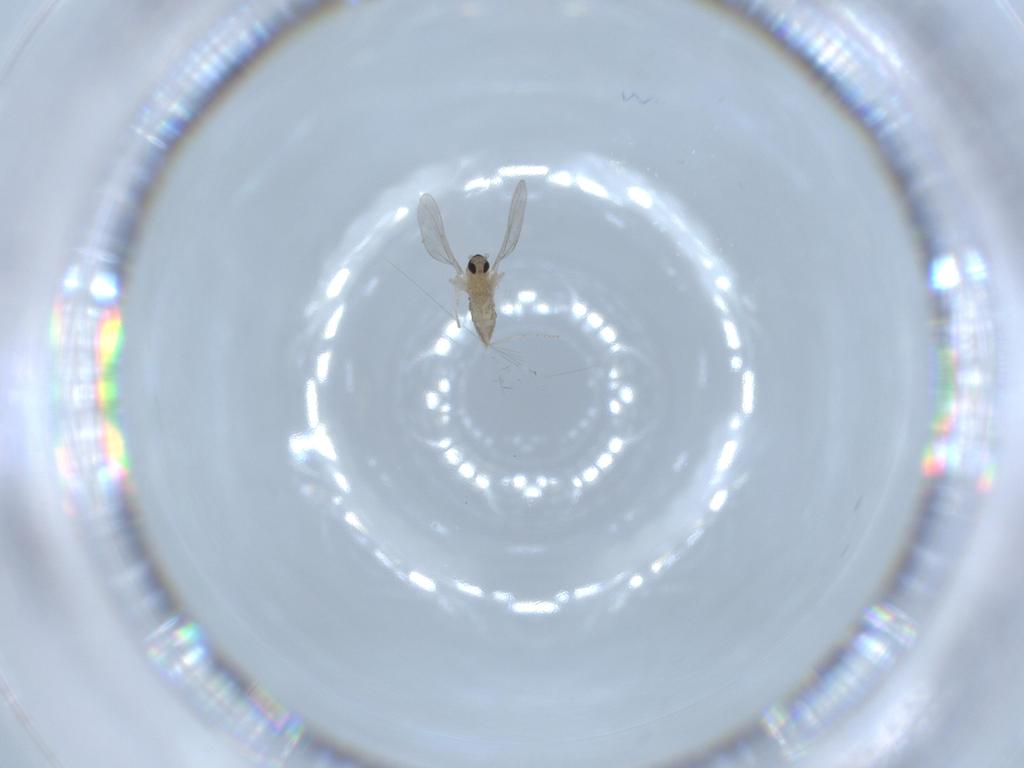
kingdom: Animalia
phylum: Arthropoda
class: Insecta
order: Diptera
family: Cecidomyiidae
